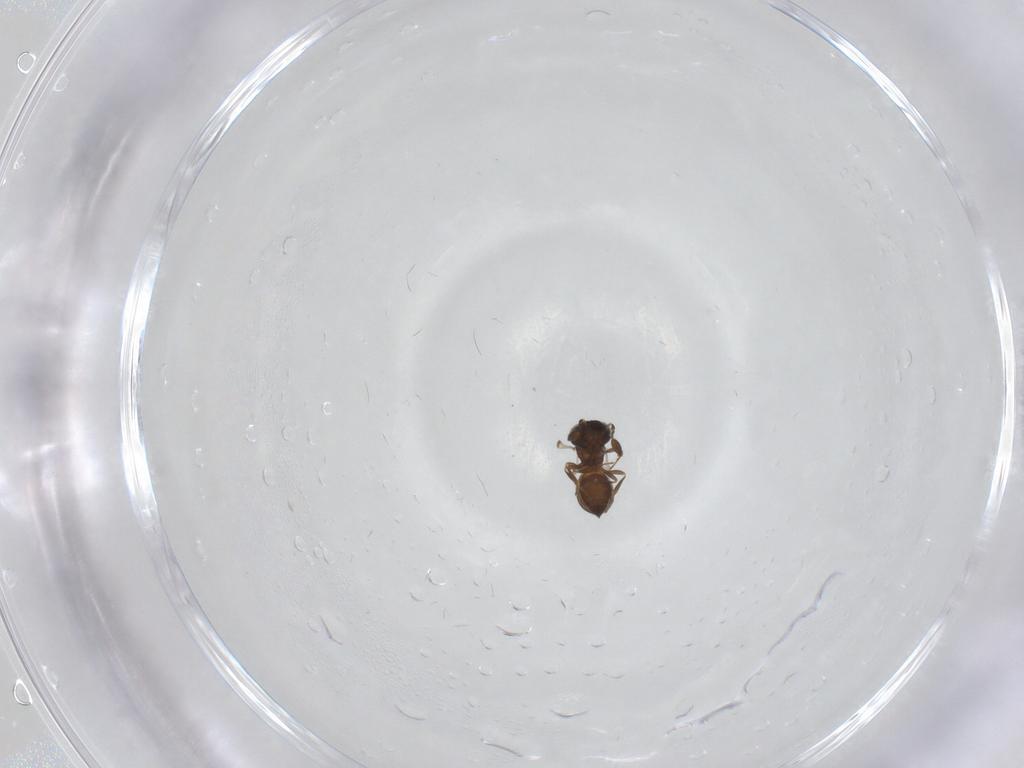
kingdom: Animalia
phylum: Arthropoda
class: Insecta
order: Hymenoptera
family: Scelionidae
